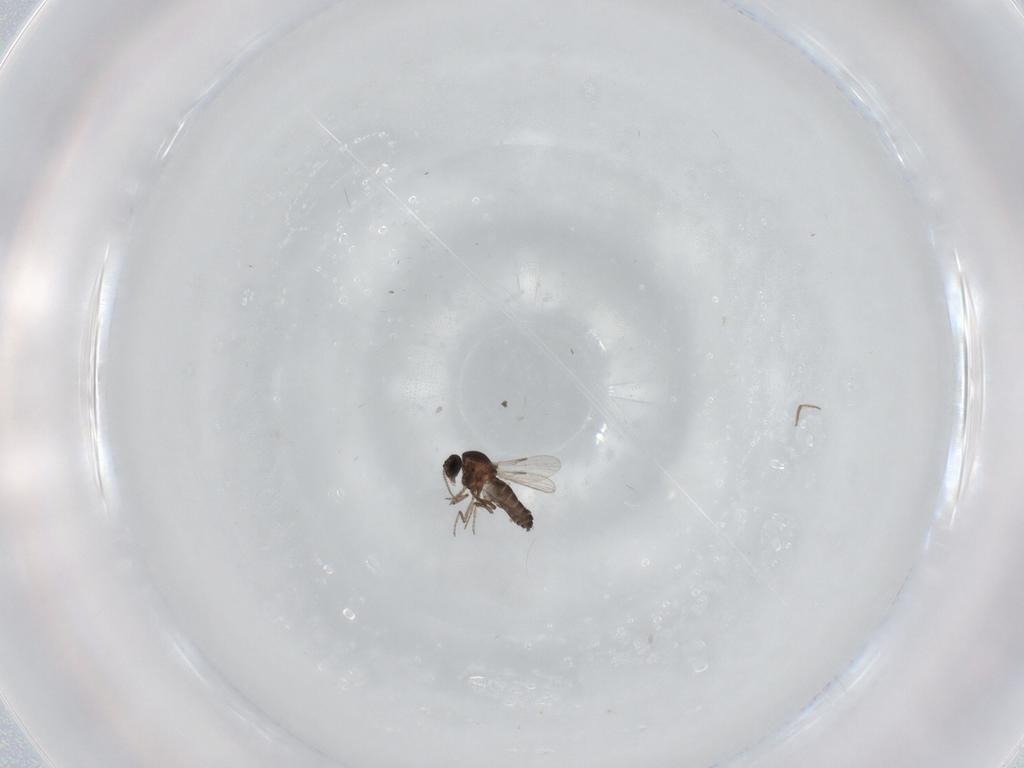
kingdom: Animalia
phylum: Arthropoda
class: Insecta
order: Diptera
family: Ceratopogonidae
